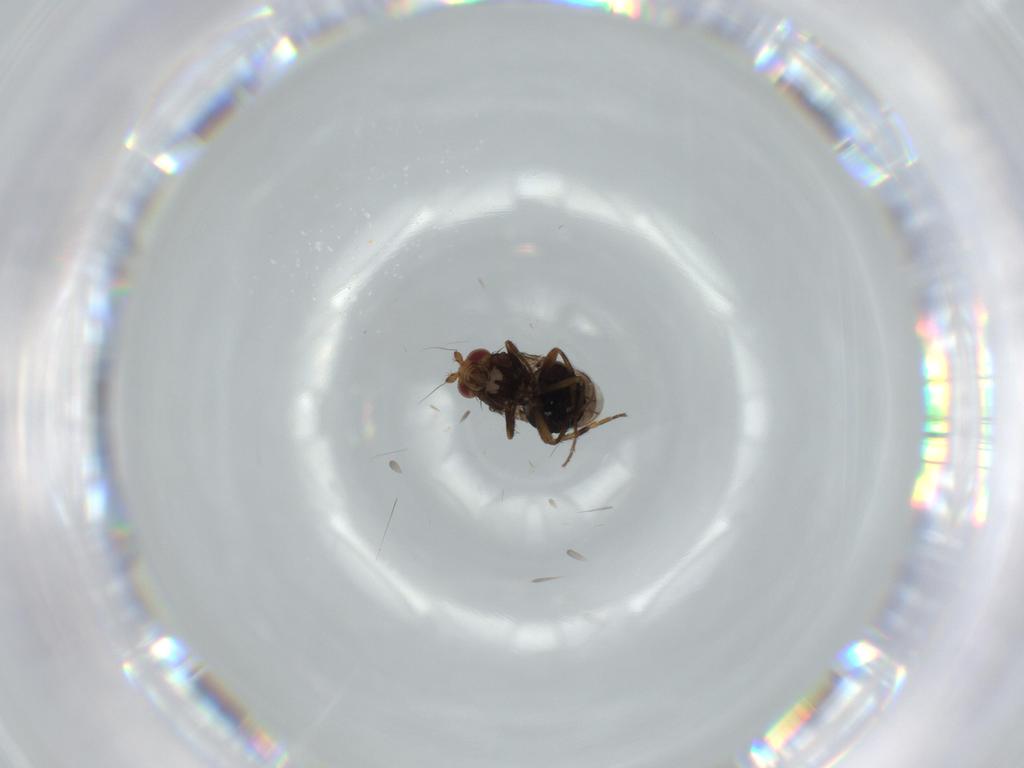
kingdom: Animalia
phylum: Arthropoda
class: Insecta
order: Diptera
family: Sphaeroceridae
